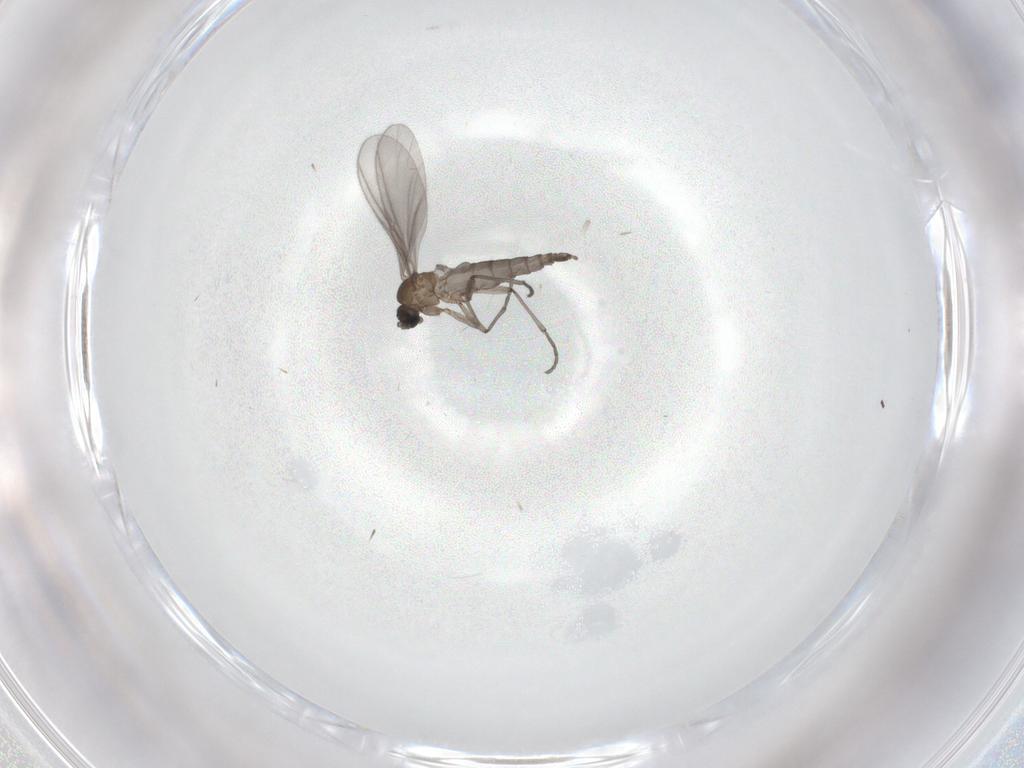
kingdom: Animalia
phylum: Arthropoda
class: Insecta
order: Diptera
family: Sciaridae
